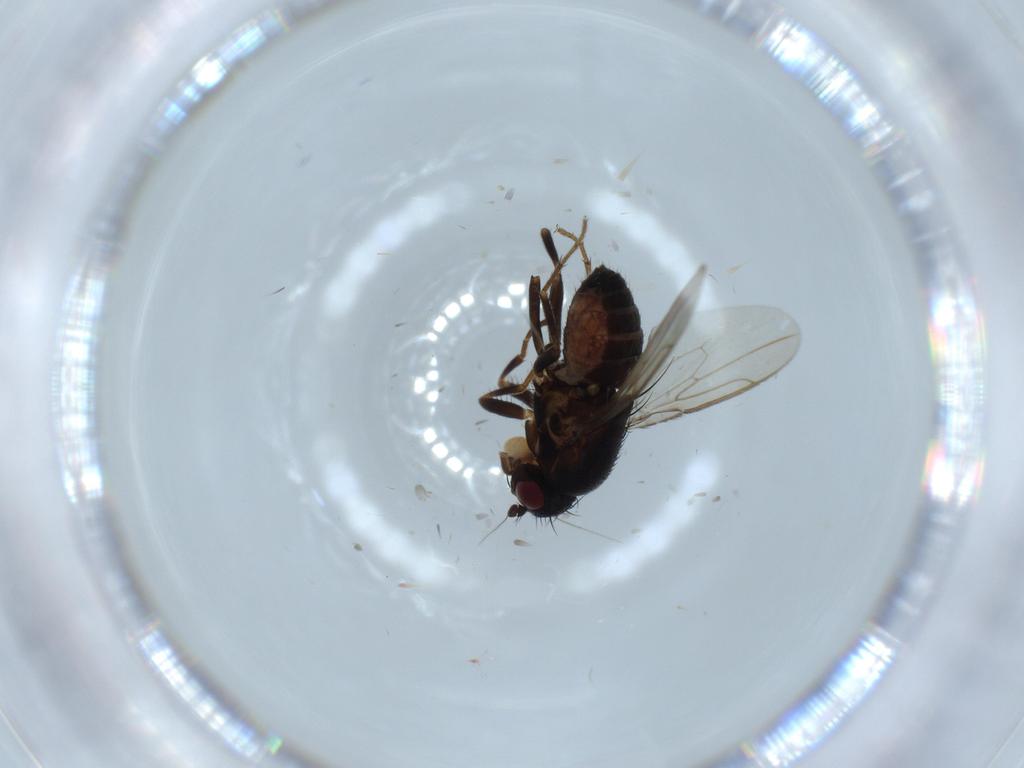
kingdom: Animalia
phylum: Arthropoda
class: Insecta
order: Diptera
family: Sphaeroceridae
